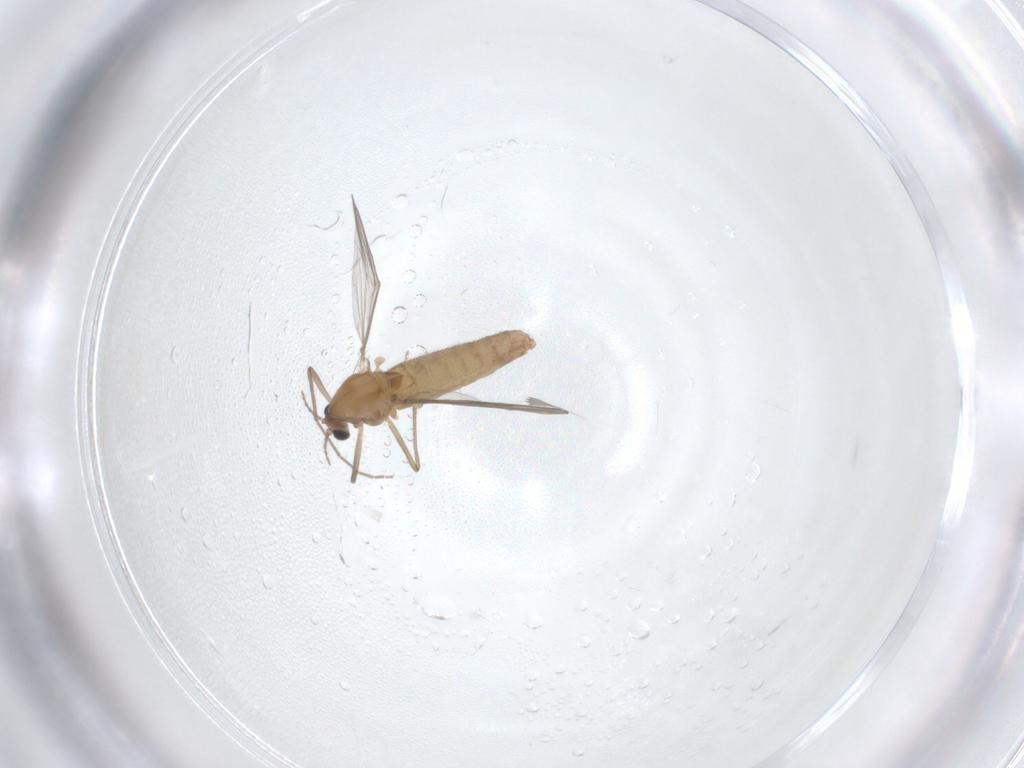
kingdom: Animalia
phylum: Arthropoda
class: Insecta
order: Diptera
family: Chironomidae
